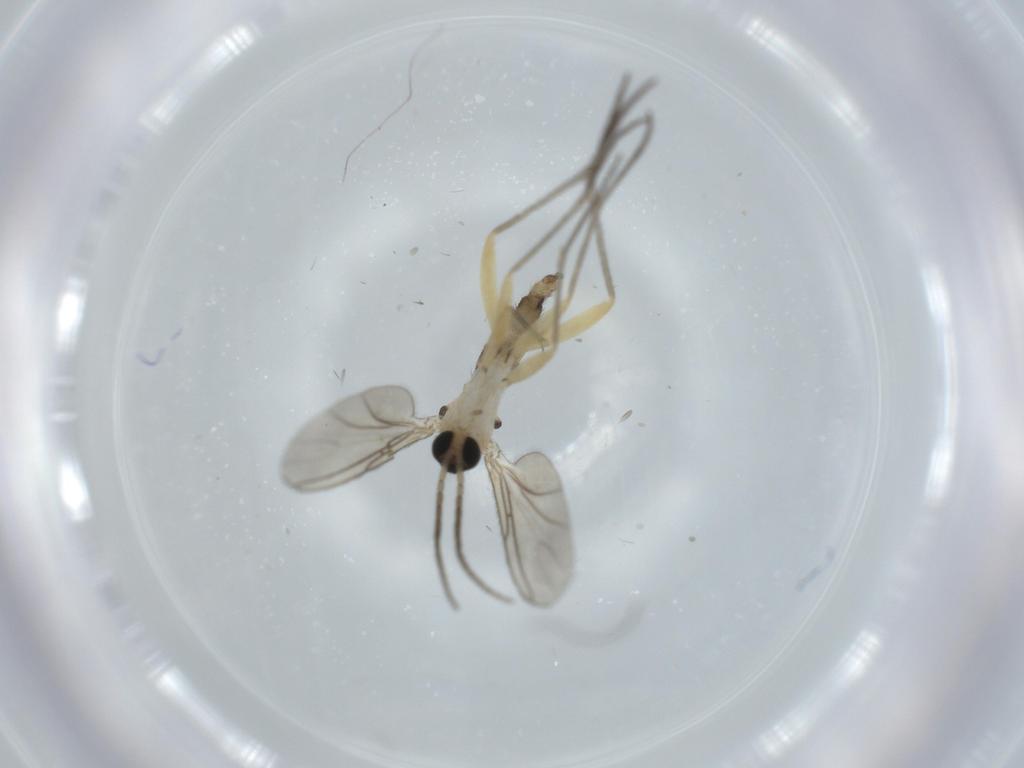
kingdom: Animalia
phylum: Arthropoda
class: Insecta
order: Diptera
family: Sciaridae
